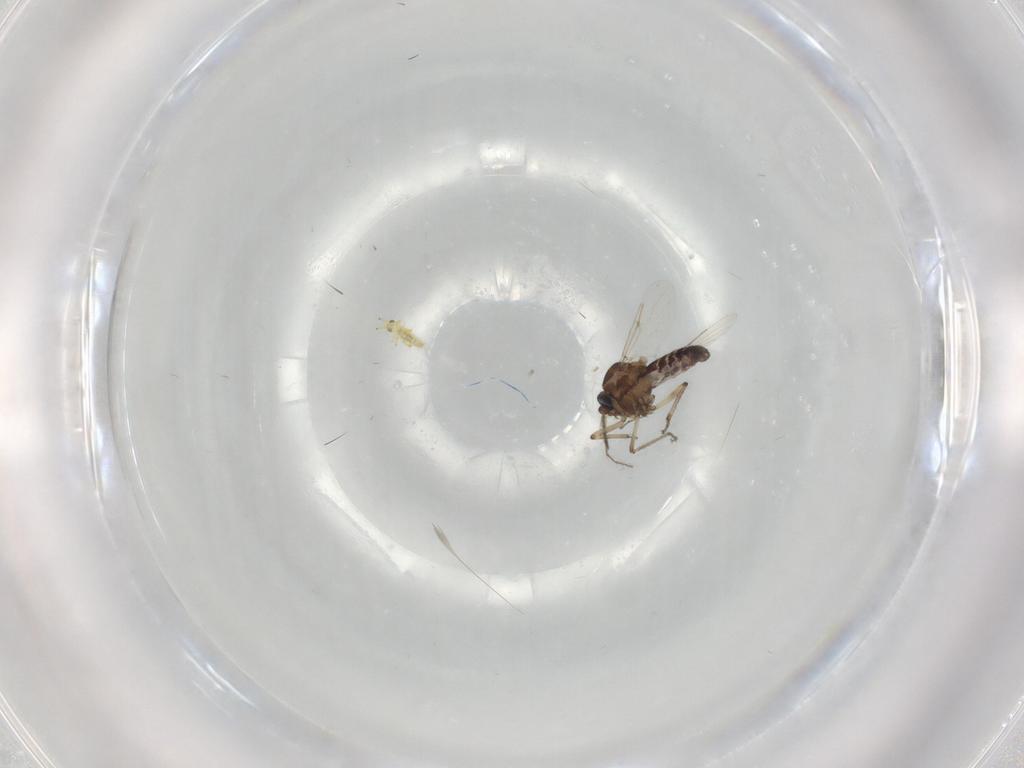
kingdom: Animalia
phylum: Arthropoda
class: Insecta
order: Diptera
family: Ceratopogonidae
